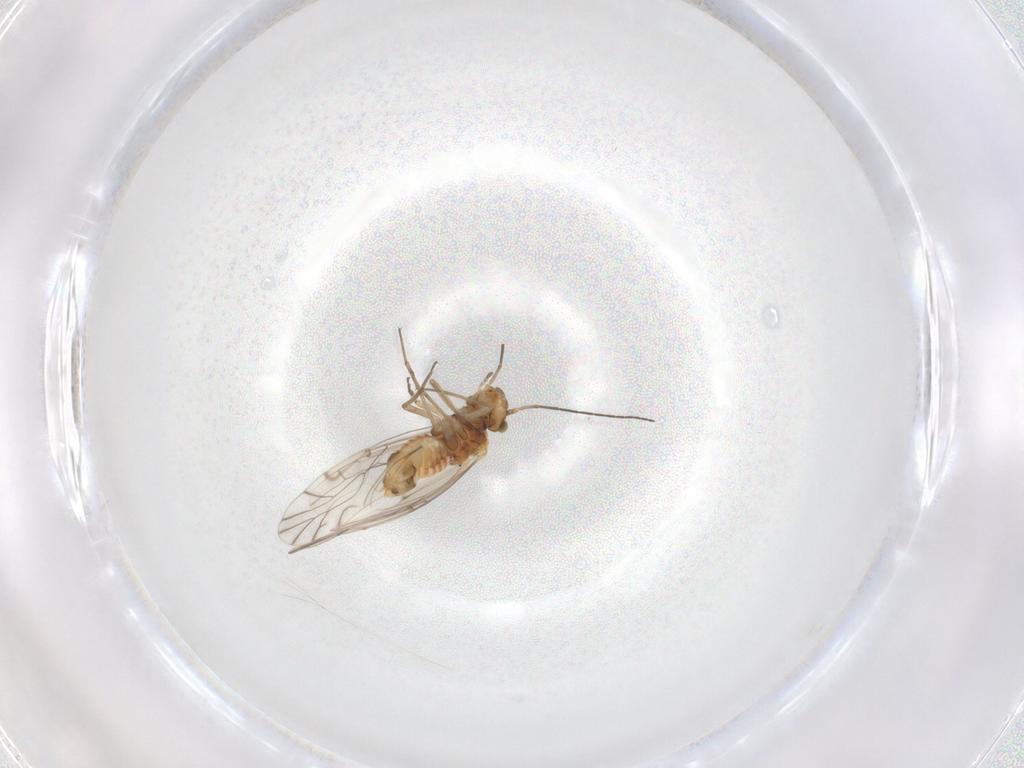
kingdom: Animalia
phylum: Arthropoda
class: Insecta
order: Psocodea
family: Lachesillidae
